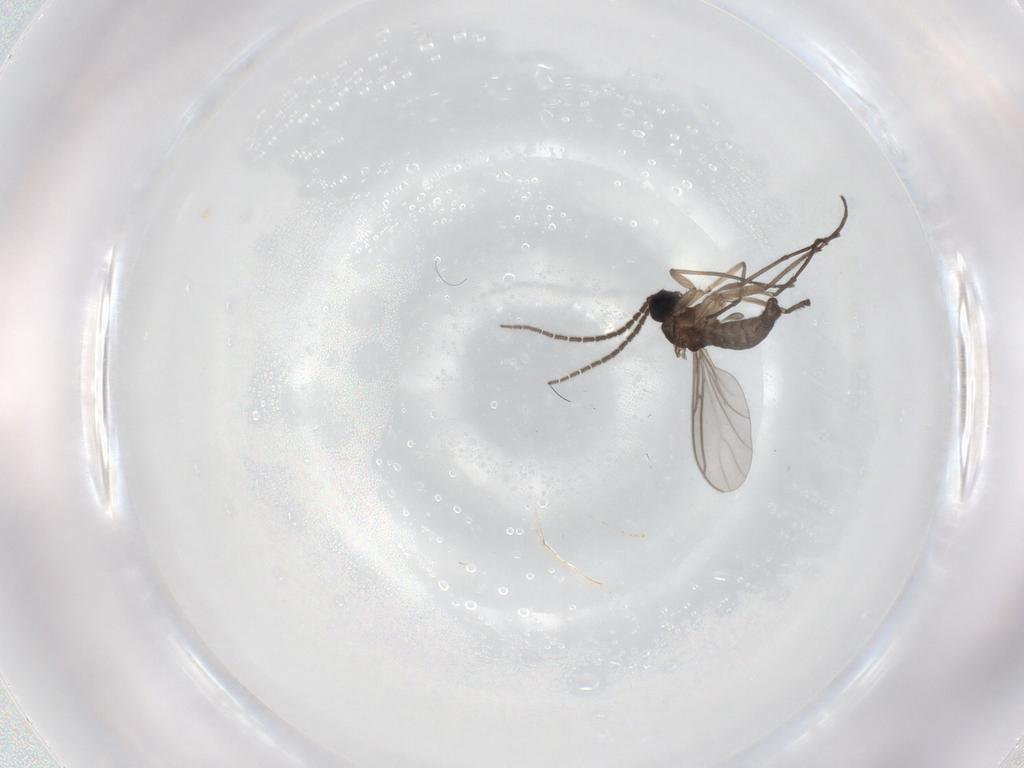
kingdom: Animalia
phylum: Arthropoda
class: Insecta
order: Diptera
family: Sciaridae
